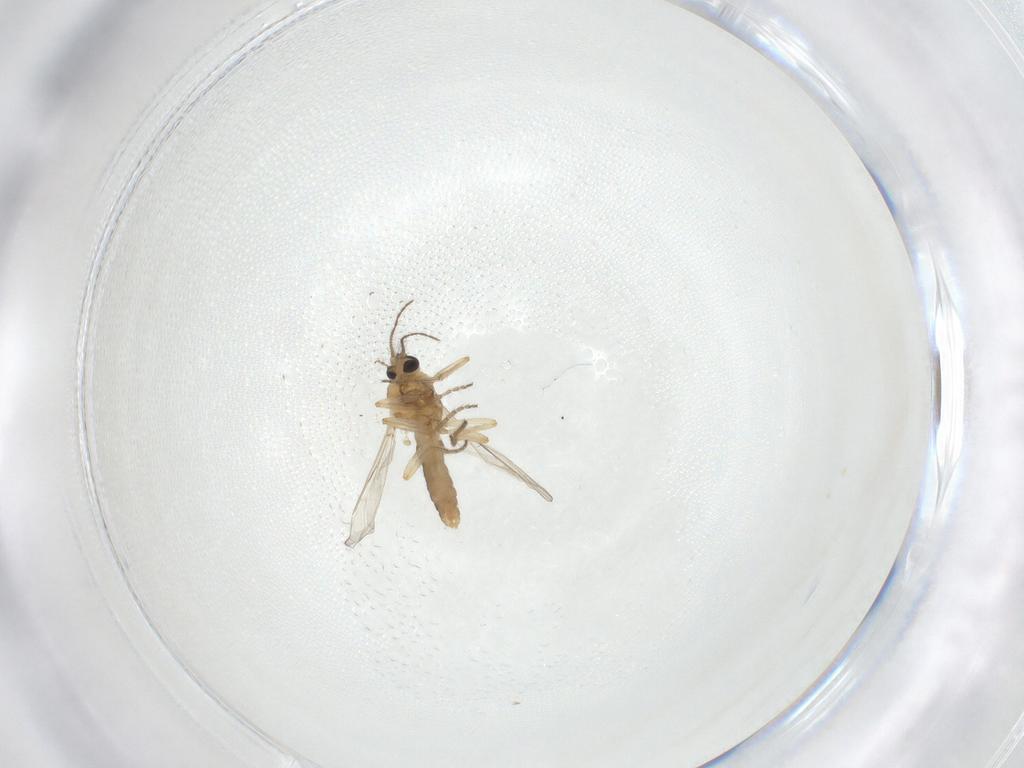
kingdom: Animalia
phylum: Arthropoda
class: Insecta
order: Diptera
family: Ceratopogonidae
